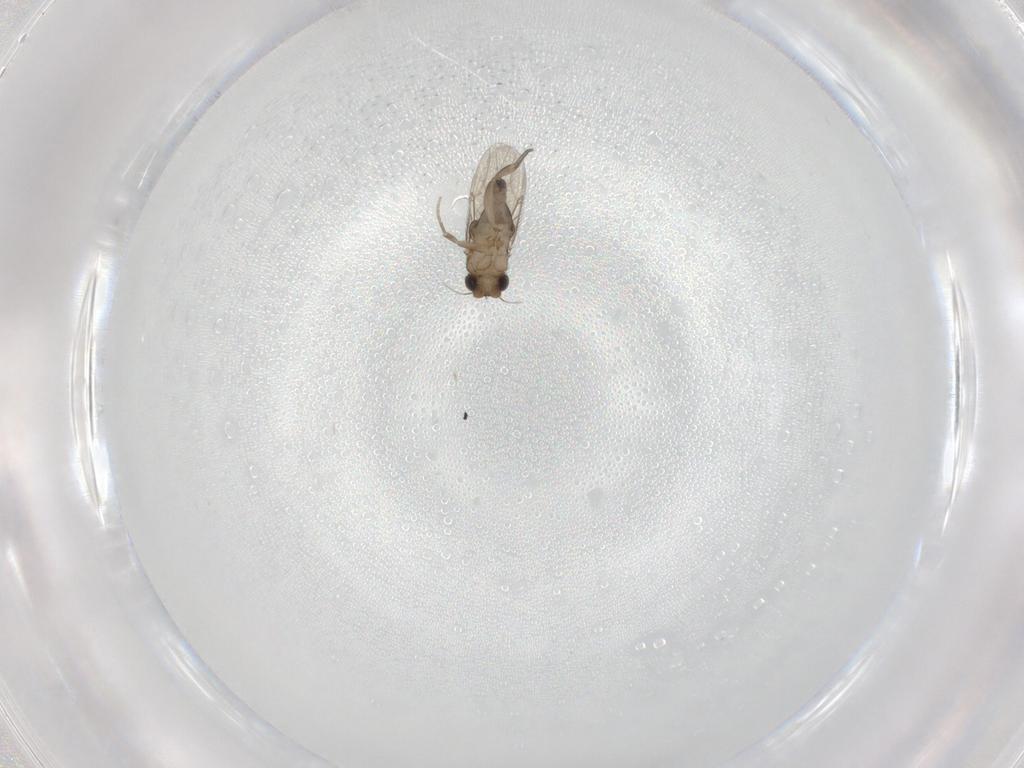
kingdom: Animalia
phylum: Arthropoda
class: Insecta
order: Diptera
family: Phoridae
